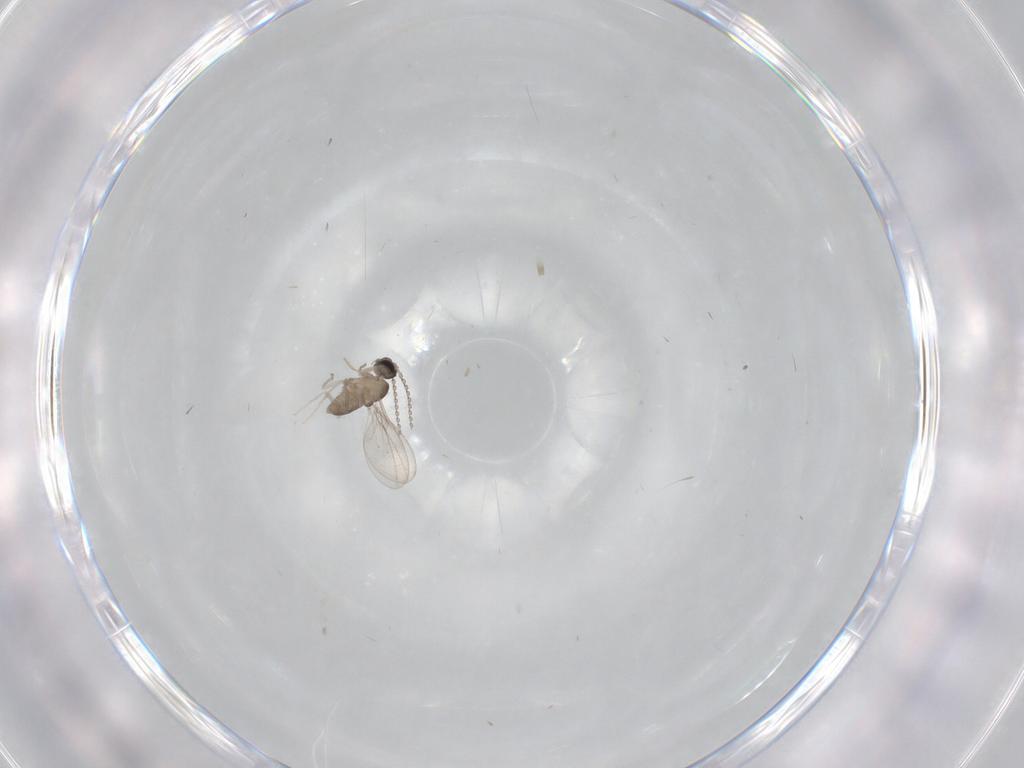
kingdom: Animalia
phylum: Arthropoda
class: Insecta
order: Diptera
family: Cecidomyiidae
